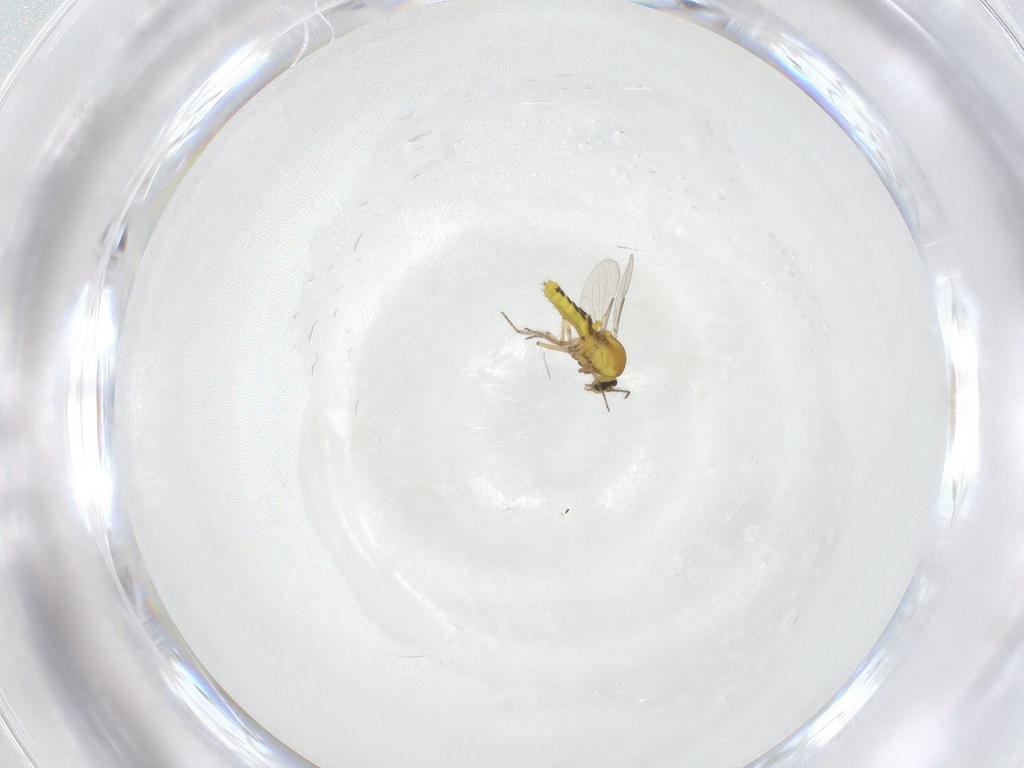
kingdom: Animalia
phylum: Arthropoda
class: Insecta
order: Diptera
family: Ceratopogonidae
